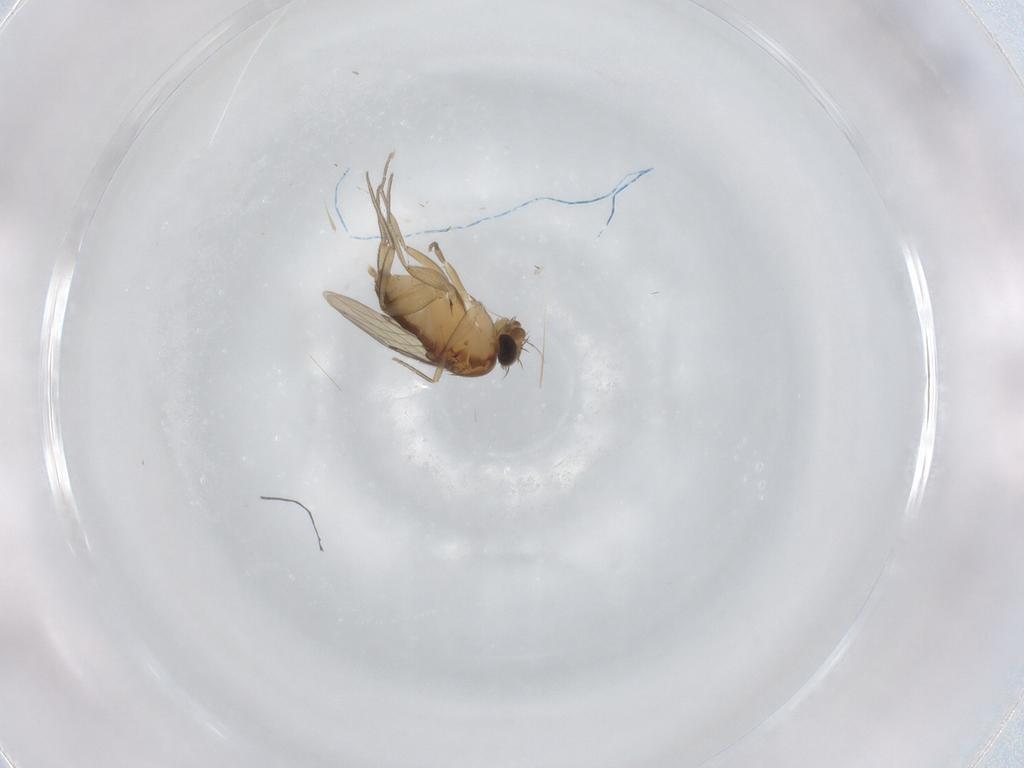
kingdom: Animalia
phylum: Arthropoda
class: Insecta
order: Diptera
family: Phoridae
